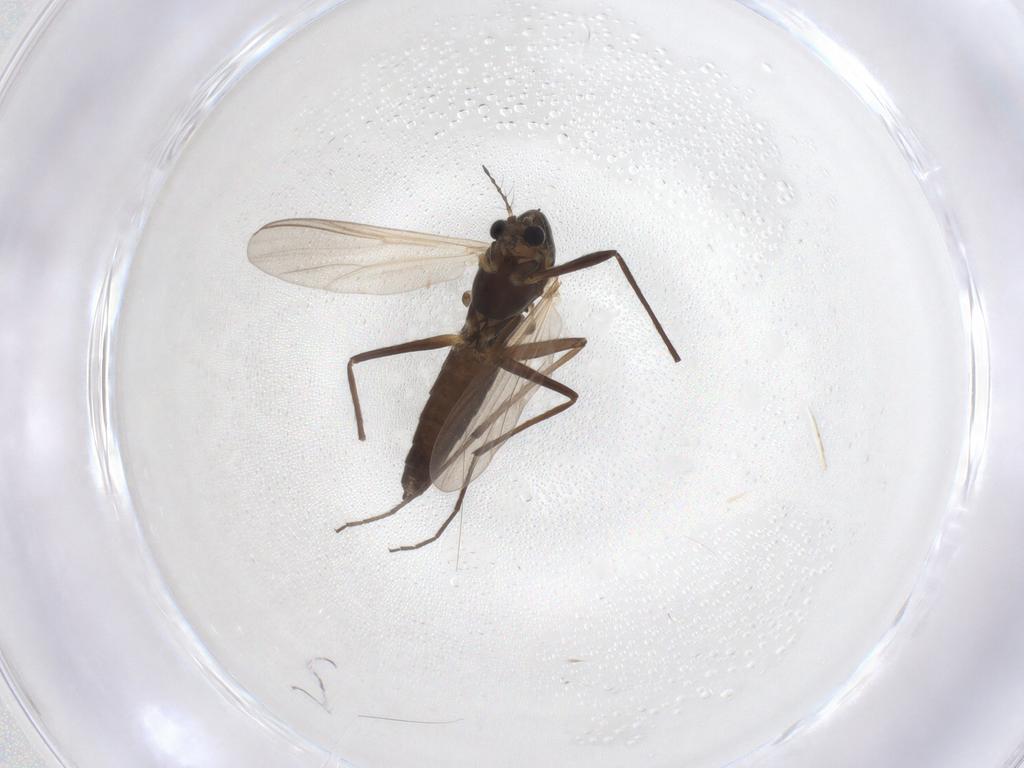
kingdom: Animalia
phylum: Arthropoda
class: Insecta
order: Diptera
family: Chironomidae
